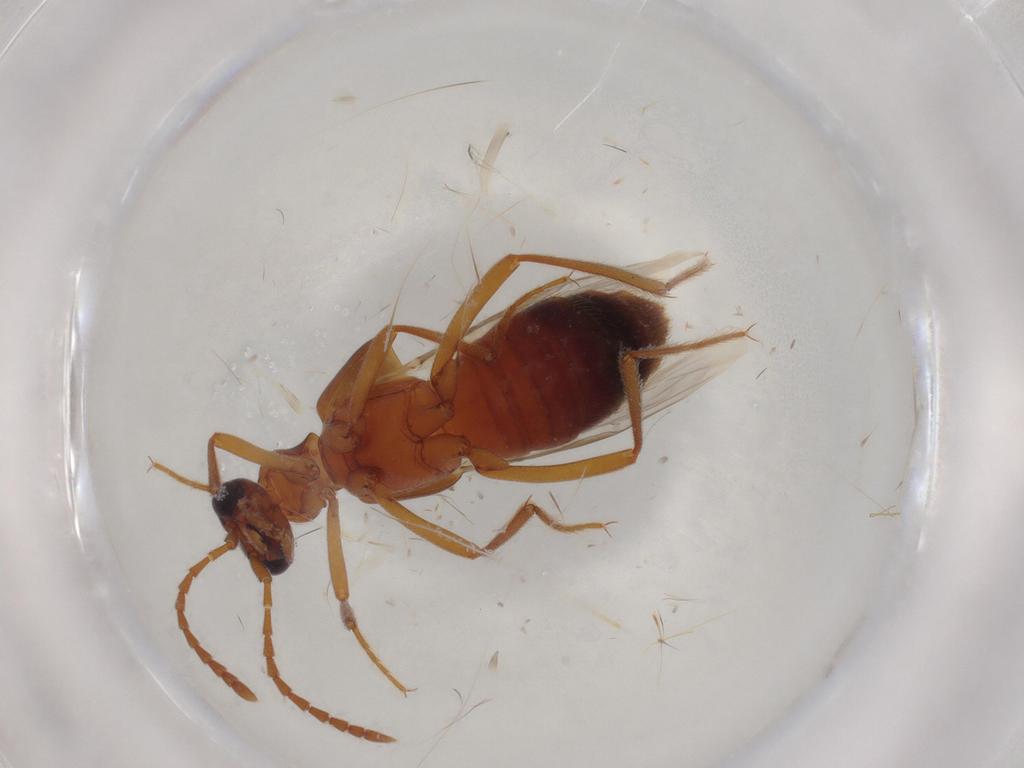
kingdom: Animalia
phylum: Arthropoda
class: Insecta
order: Coleoptera
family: Staphylinidae
